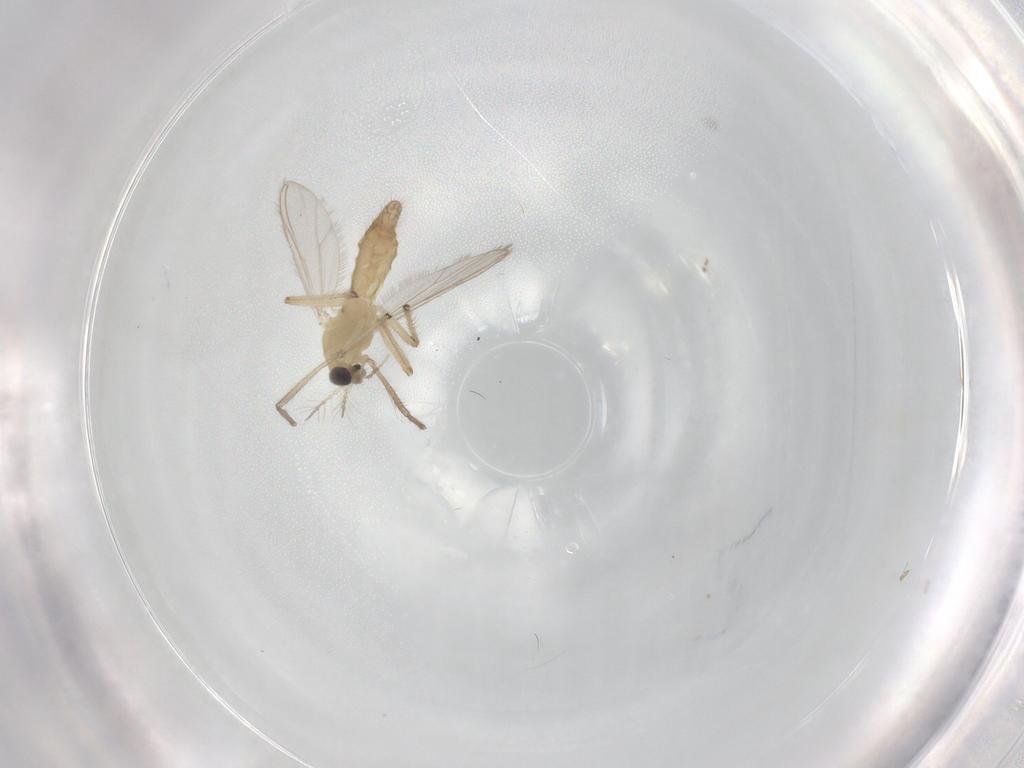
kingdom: Animalia
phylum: Arthropoda
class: Insecta
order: Diptera
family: Chironomidae
